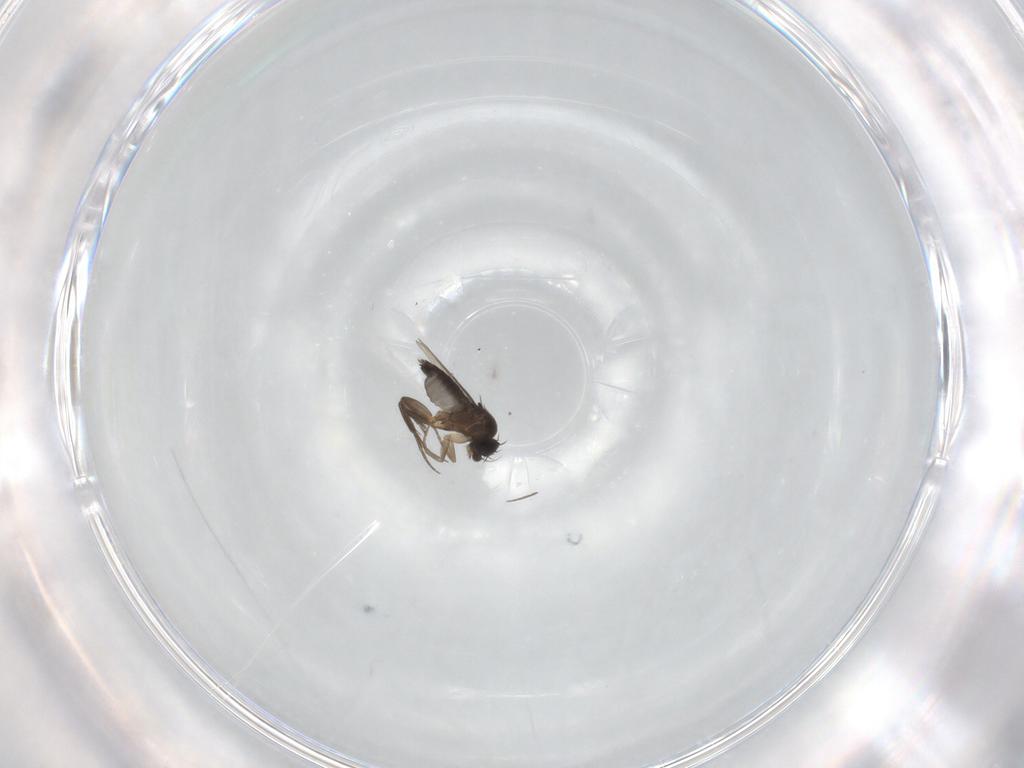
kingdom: Animalia
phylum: Arthropoda
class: Insecta
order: Diptera
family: Phoridae
